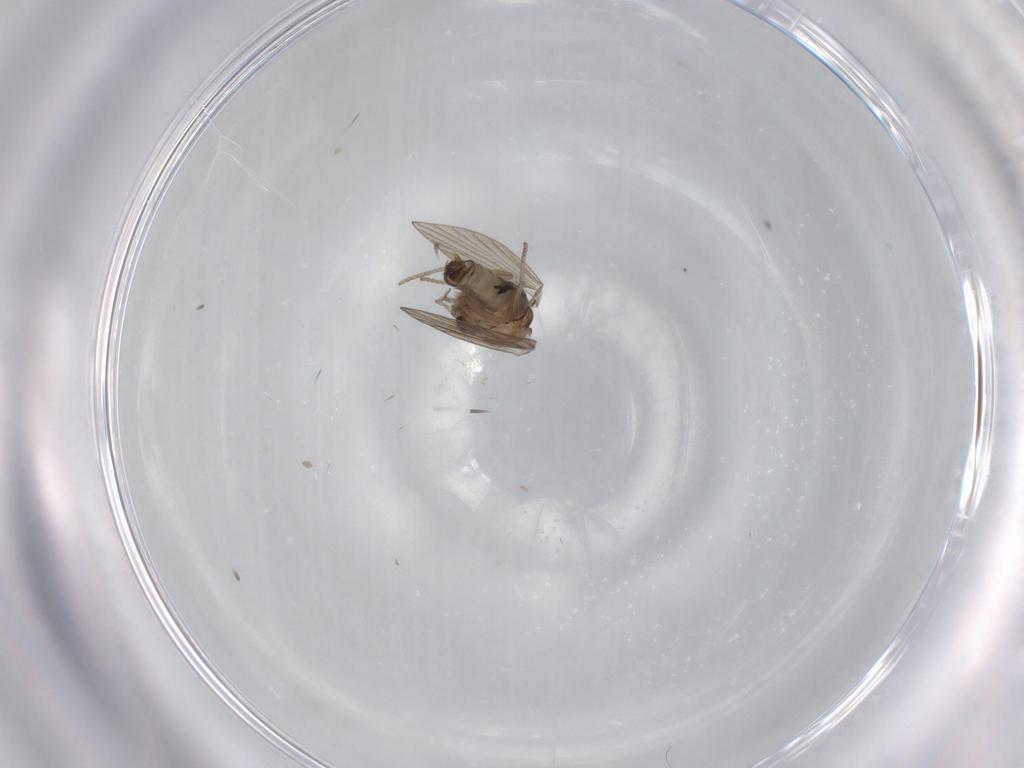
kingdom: Animalia
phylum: Arthropoda
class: Insecta
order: Diptera
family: Psychodidae
